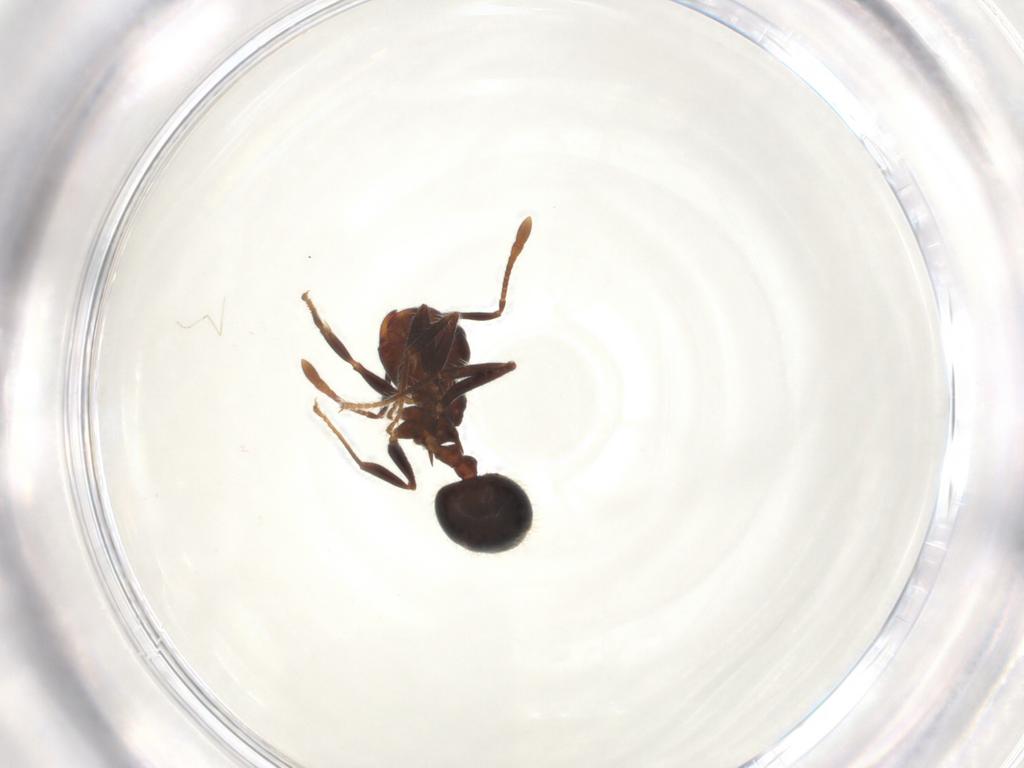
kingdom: Animalia
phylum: Arthropoda
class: Insecta
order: Hymenoptera
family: Formicidae
